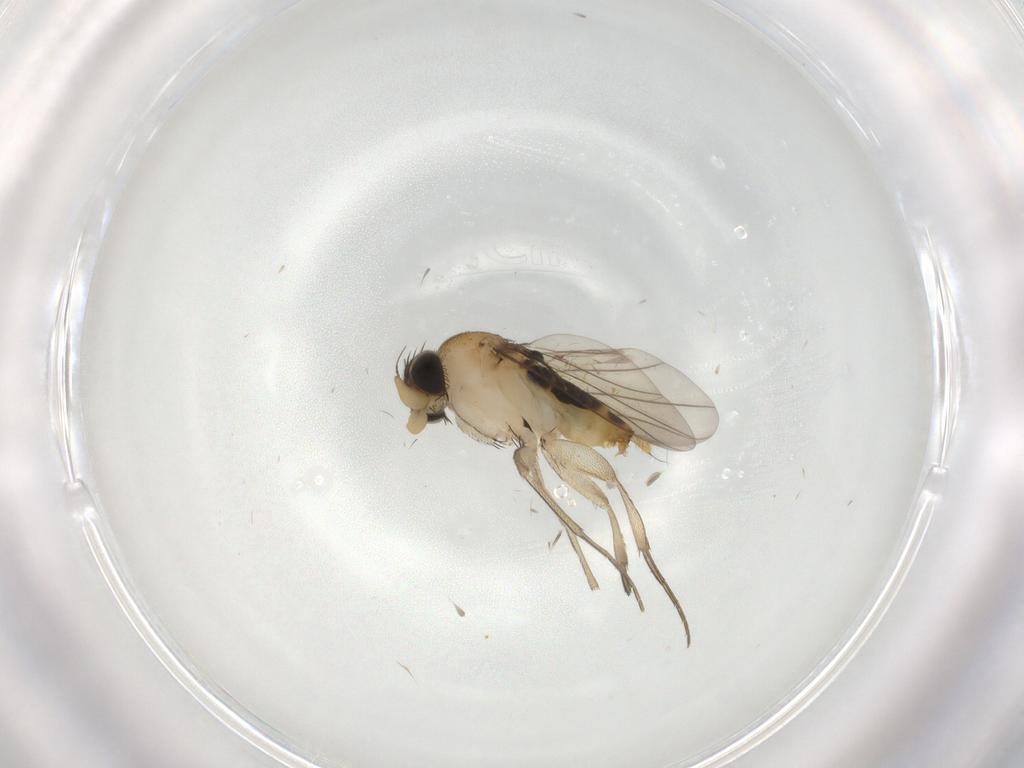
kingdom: Animalia
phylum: Arthropoda
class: Insecta
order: Diptera
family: Phoridae
